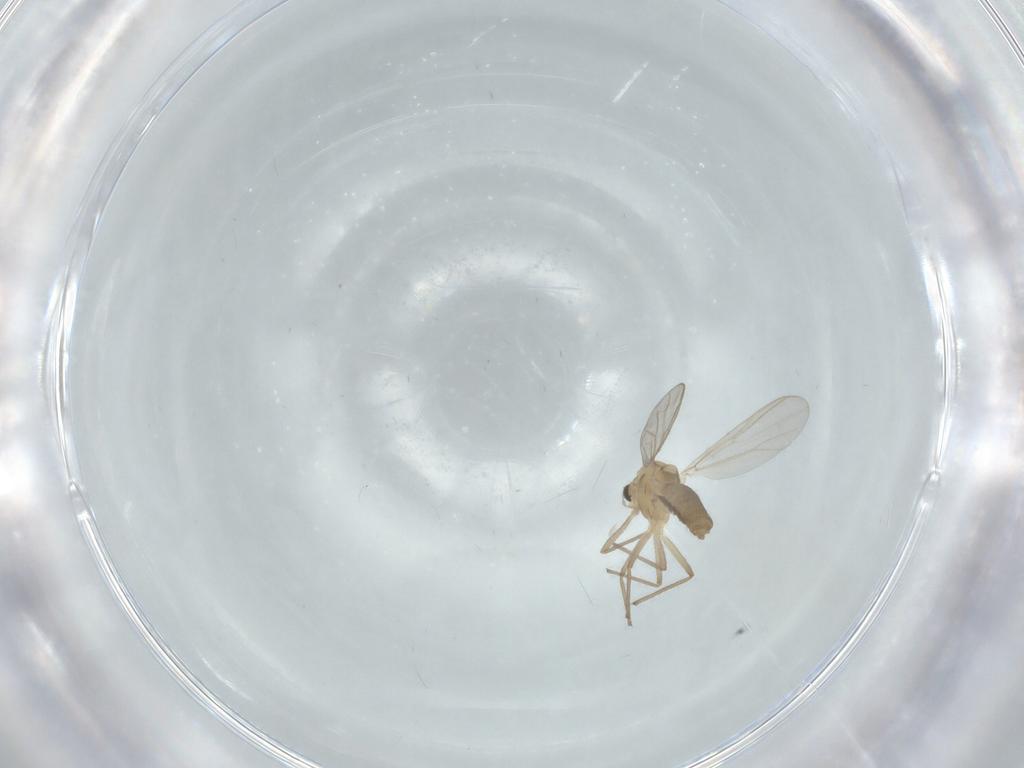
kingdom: Animalia
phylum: Arthropoda
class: Insecta
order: Diptera
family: Chironomidae
